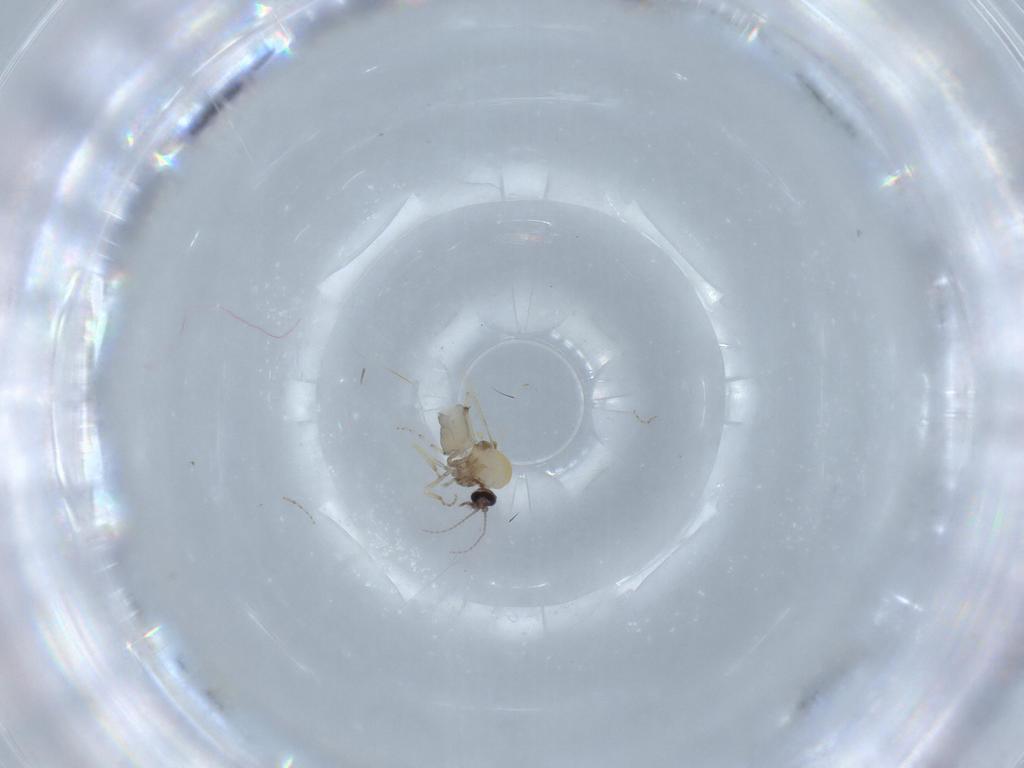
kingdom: Animalia
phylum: Arthropoda
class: Insecta
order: Diptera
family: Ceratopogonidae
